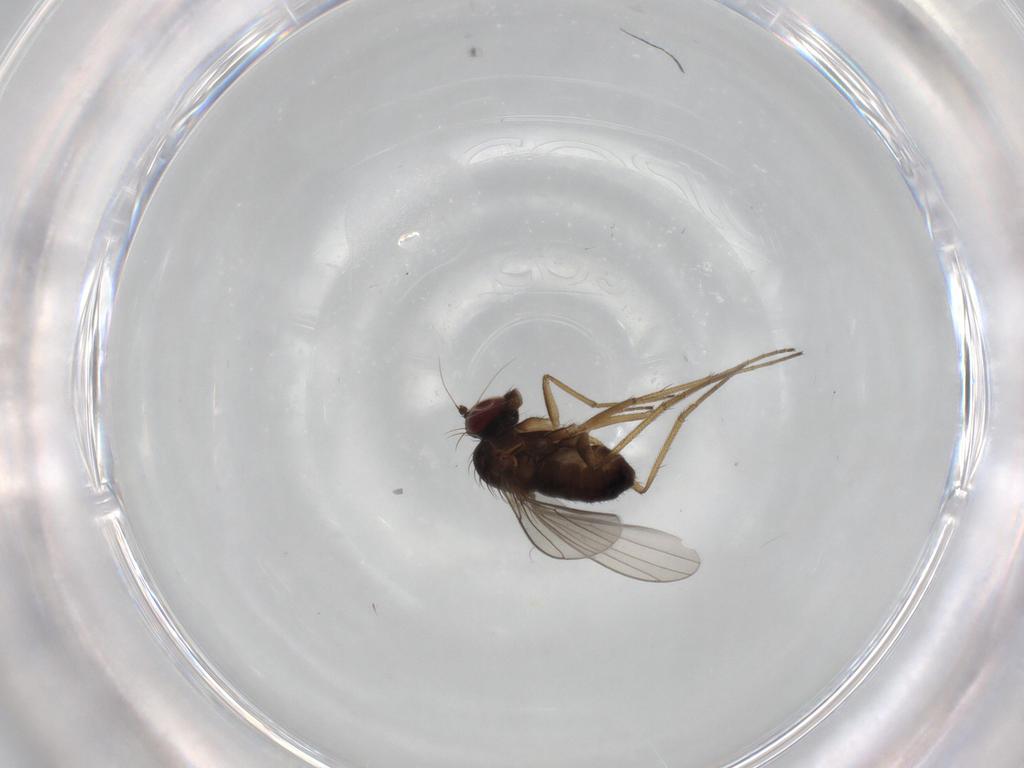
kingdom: Animalia
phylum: Arthropoda
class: Insecta
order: Diptera
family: Dolichopodidae
